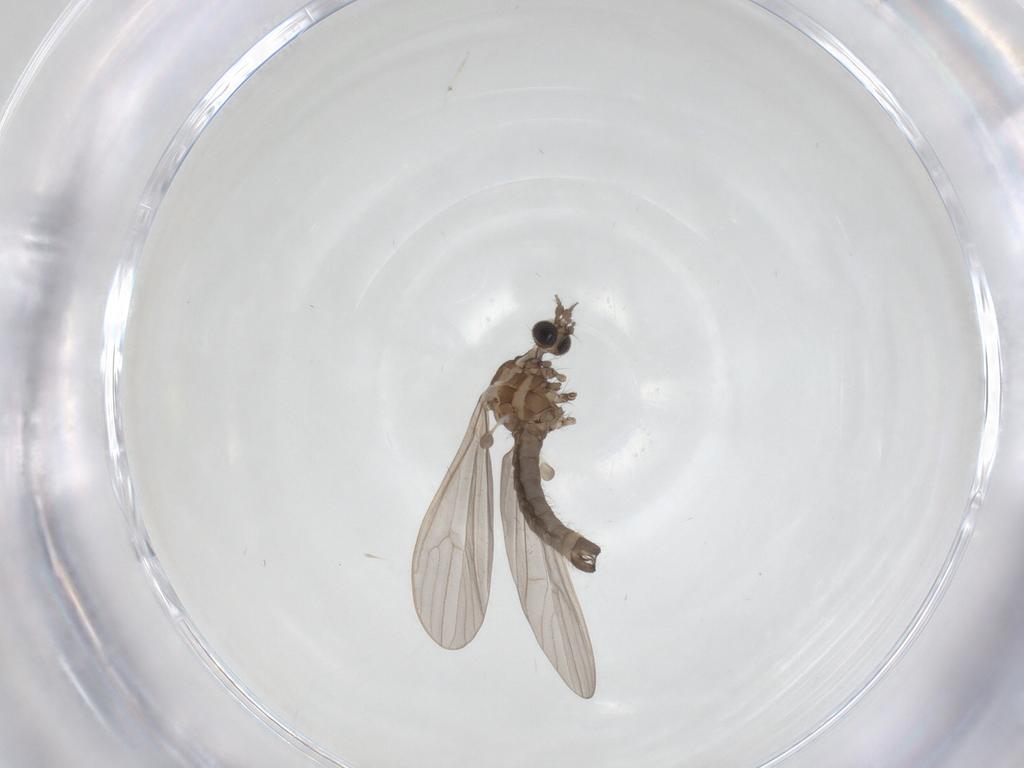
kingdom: Animalia
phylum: Arthropoda
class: Insecta
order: Diptera
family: Limoniidae
